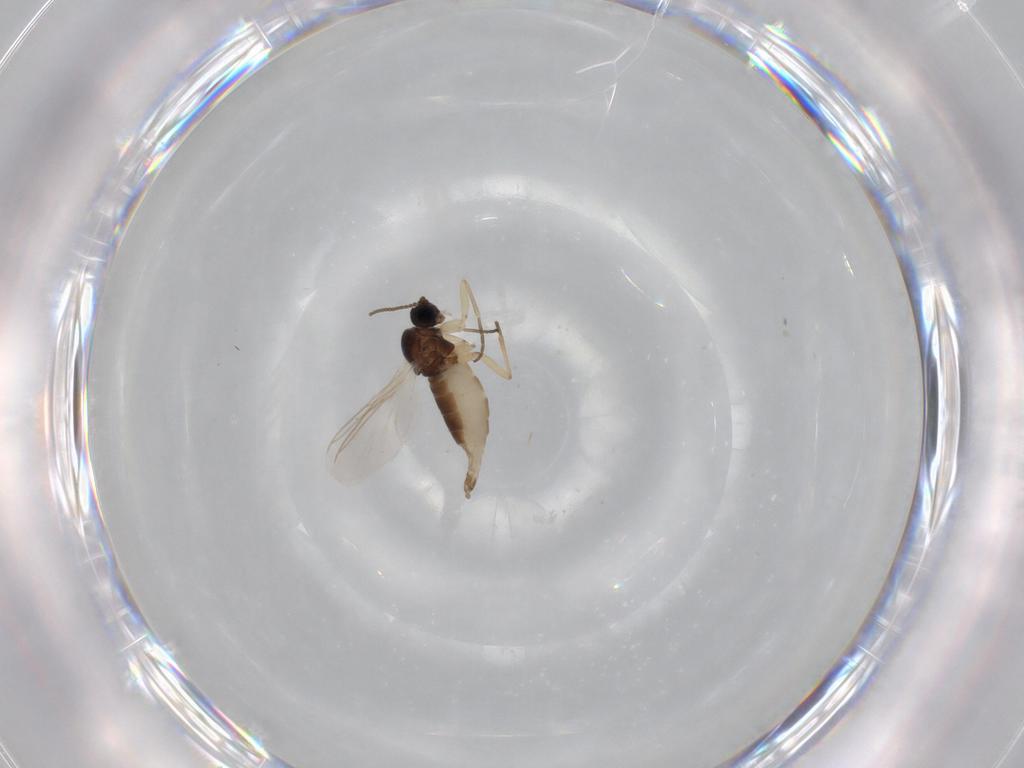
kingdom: Animalia
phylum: Arthropoda
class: Insecta
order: Diptera
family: Sciaridae
